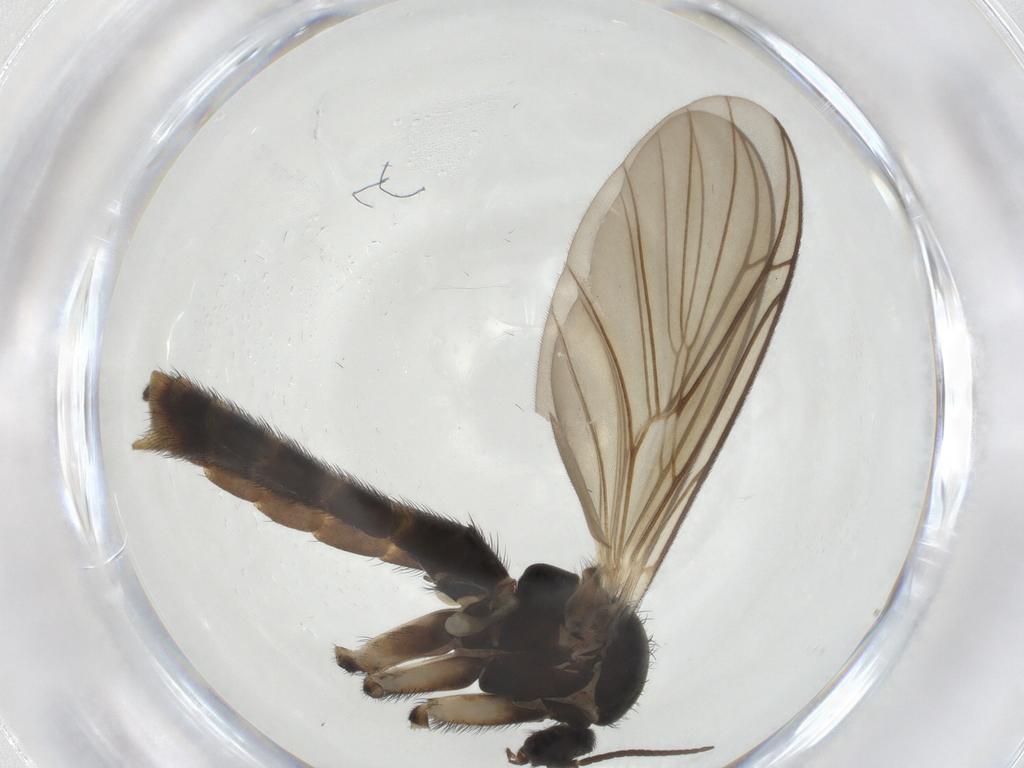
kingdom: Animalia
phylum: Arthropoda
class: Insecta
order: Diptera
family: Keroplatidae
